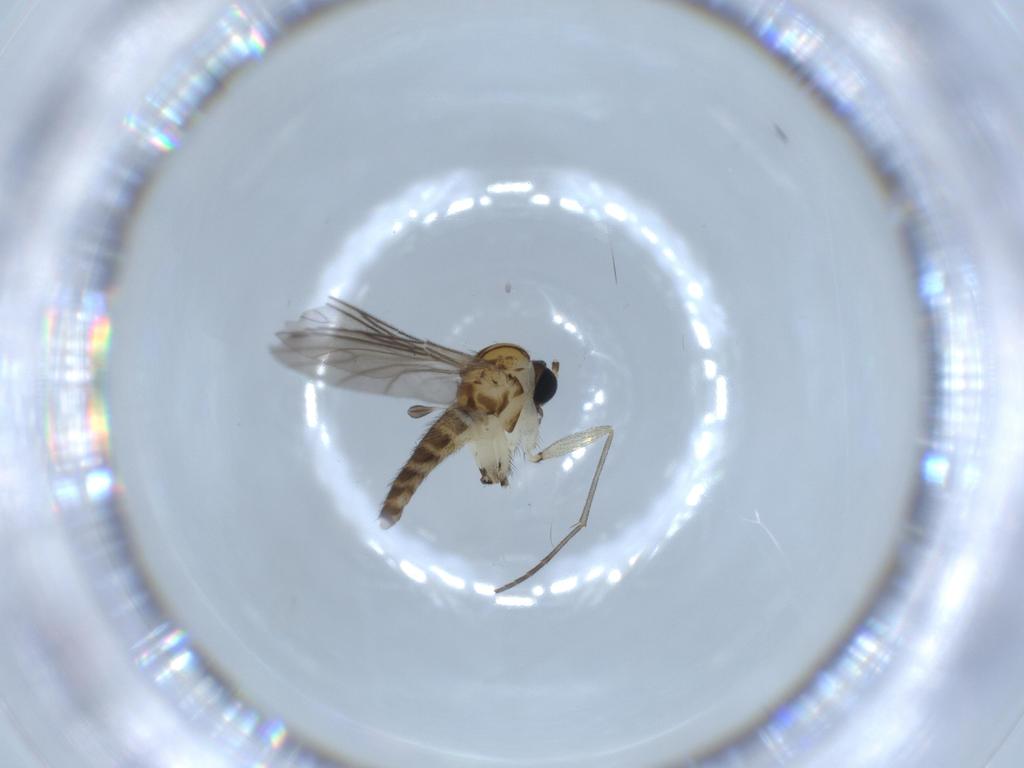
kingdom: Animalia
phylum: Arthropoda
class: Insecta
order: Diptera
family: Sciaridae
